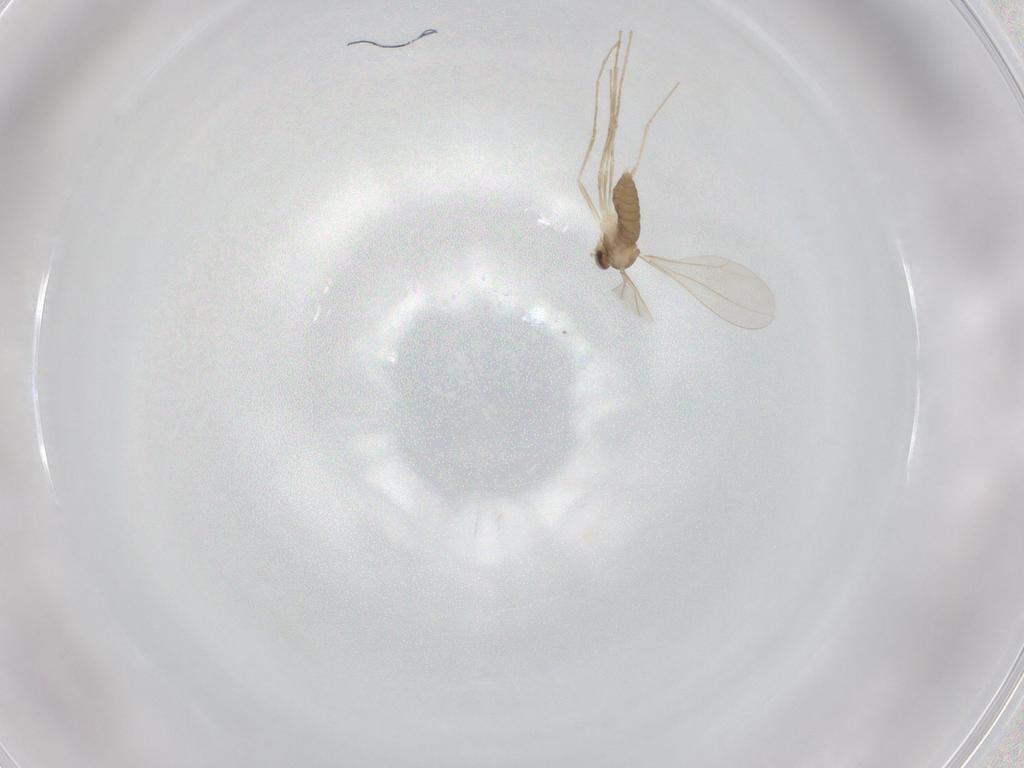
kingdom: Animalia
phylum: Arthropoda
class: Insecta
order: Diptera
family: Cecidomyiidae
